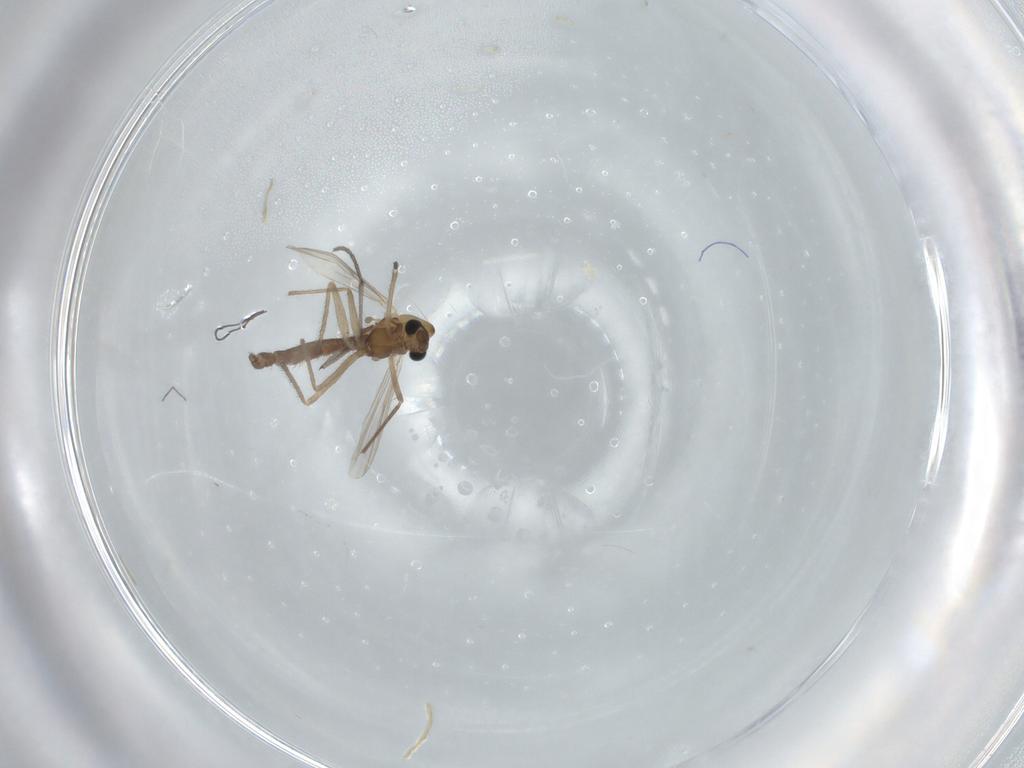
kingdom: Animalia
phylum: Arthropoda
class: Insecta
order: Diptera
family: Chironomidae
